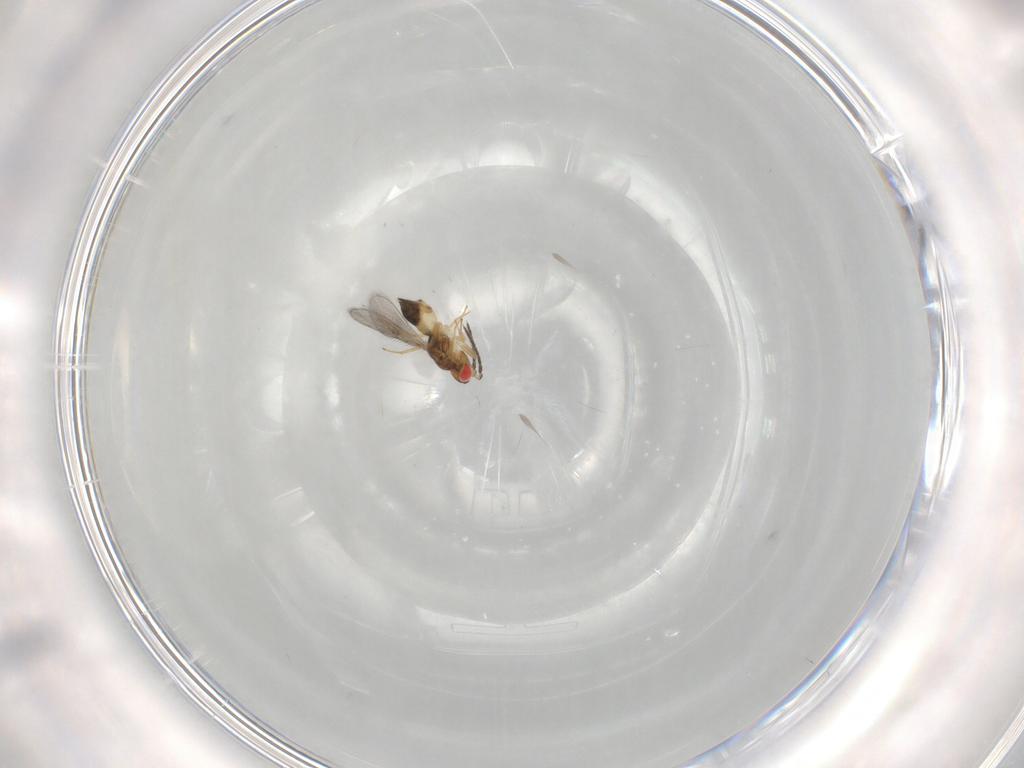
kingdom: Animalia
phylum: Arthropoda
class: Insecta
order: Hymenoptera
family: Eulophidae
